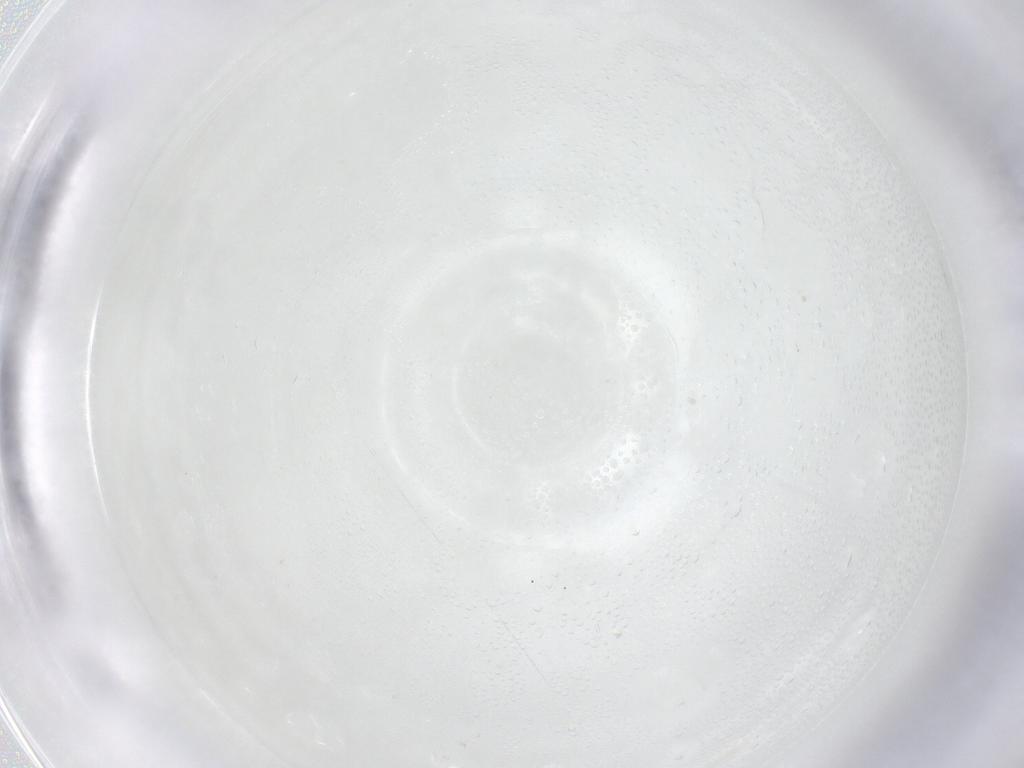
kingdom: Animalia
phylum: Arthropoda
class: Insecta
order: Diptera
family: Cecidomyiidae
